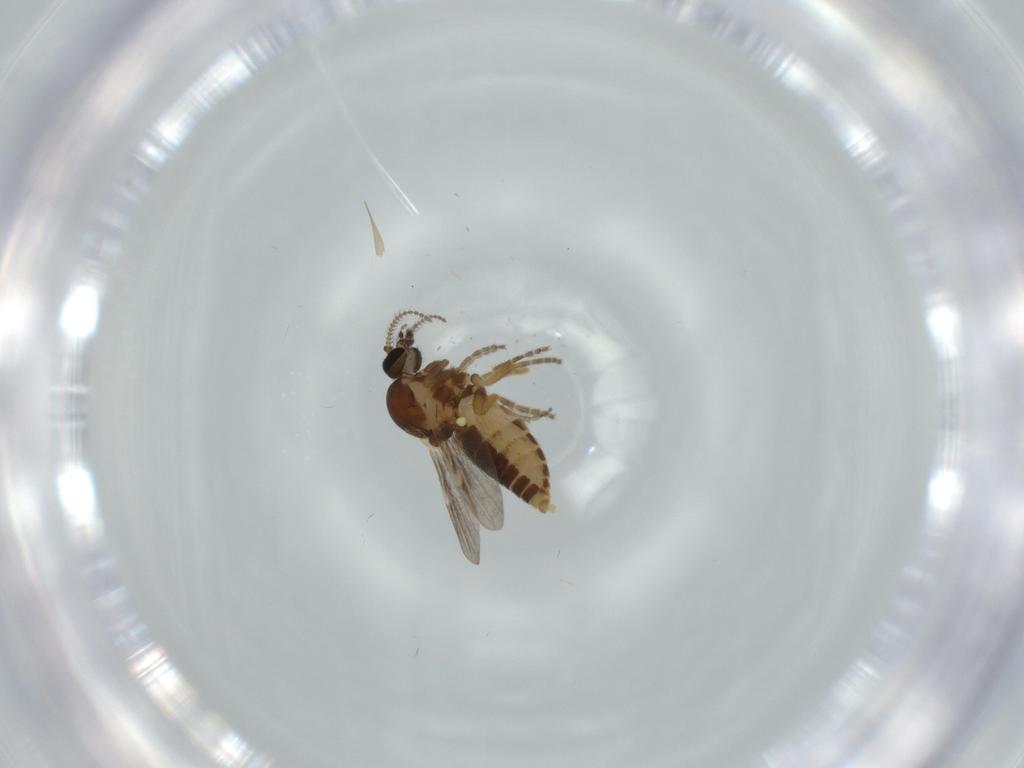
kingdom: Animalia
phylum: Arthropoda
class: Insecta
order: Diptera
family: Ceratopogonidae
